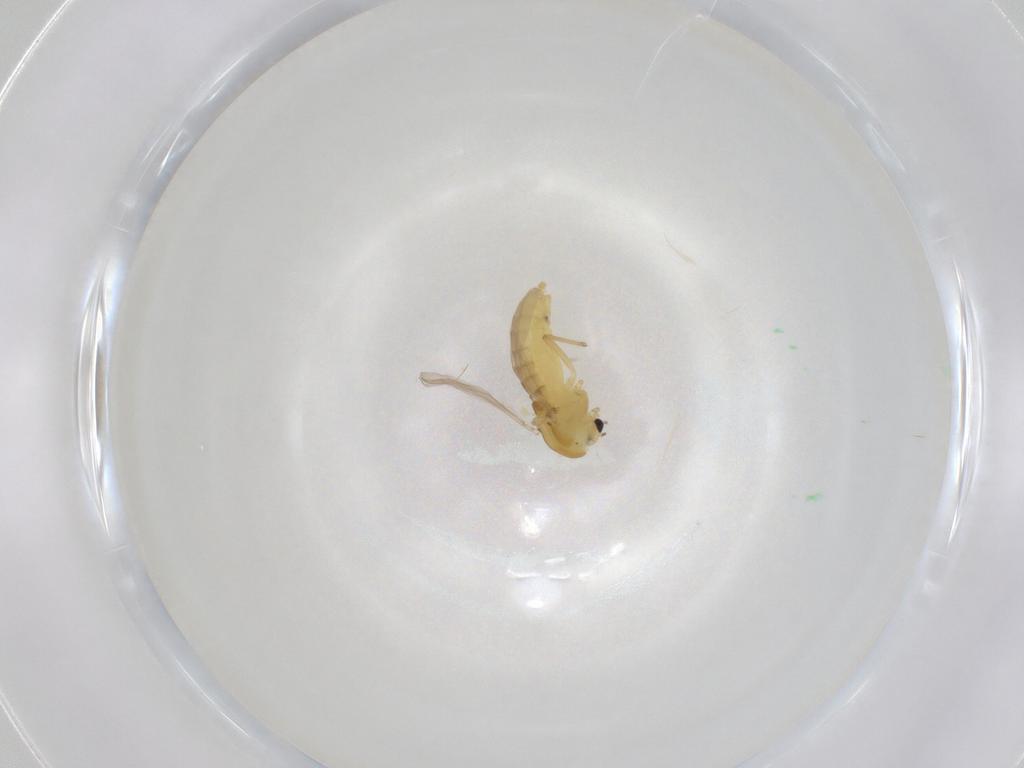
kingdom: Animalia
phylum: Arthropoda
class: Insecta
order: Diptera
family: Chironomidae
